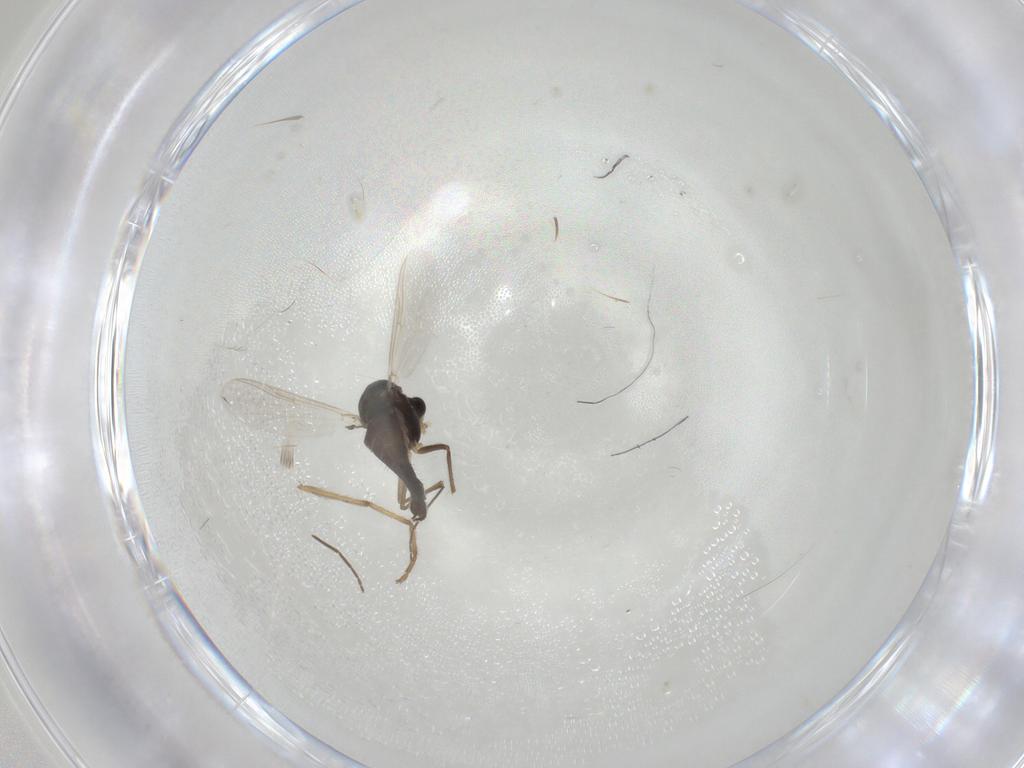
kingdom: Animalia
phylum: Arthropoda
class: Insecta
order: Diptera
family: Chironomidae
